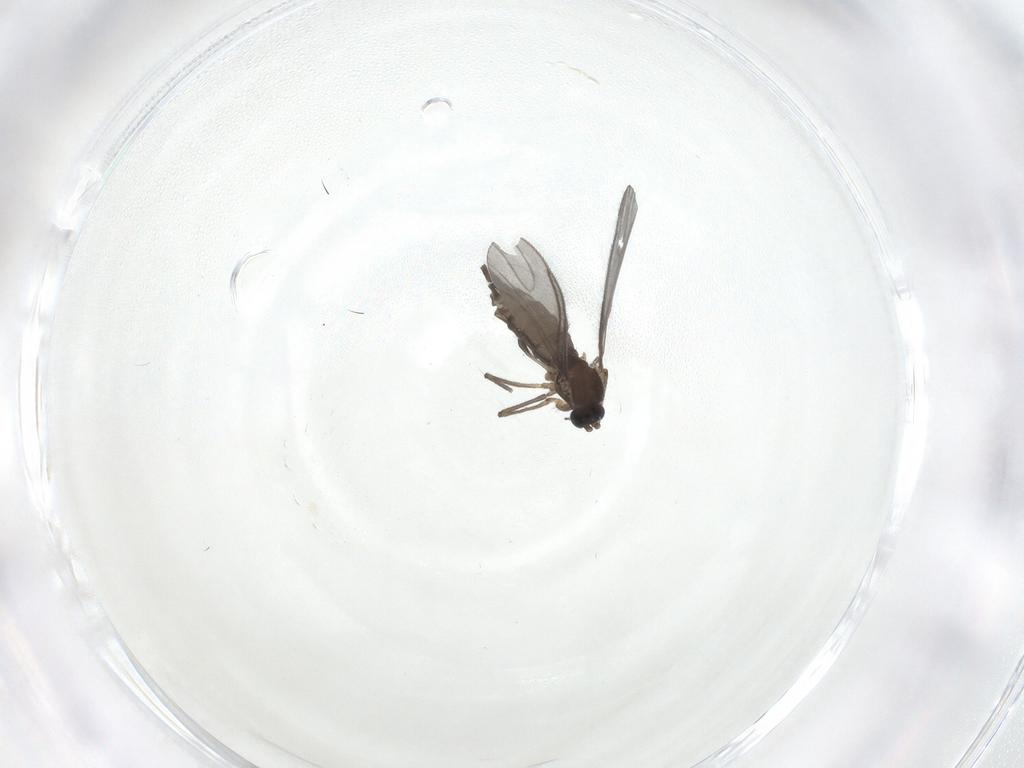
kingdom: Animalia
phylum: Arthropoda
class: Insecta
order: Diptera
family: Sciaridae
